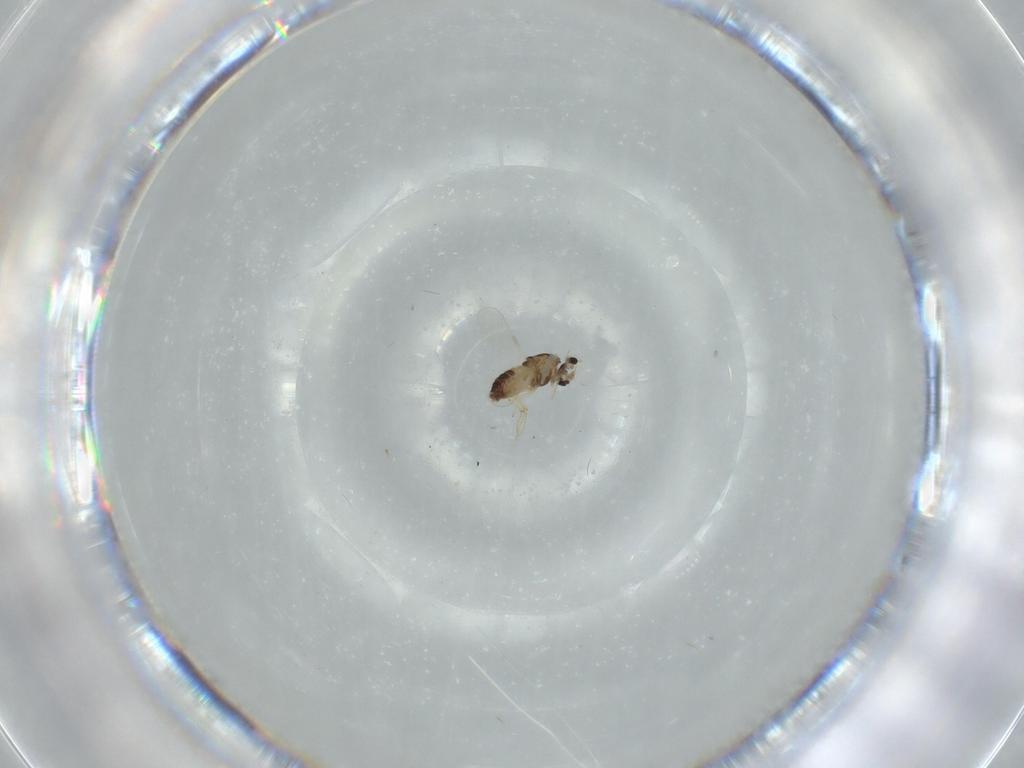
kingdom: Animalia
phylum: Arthropoda
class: Insecta
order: Diptera
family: Chironomidae
